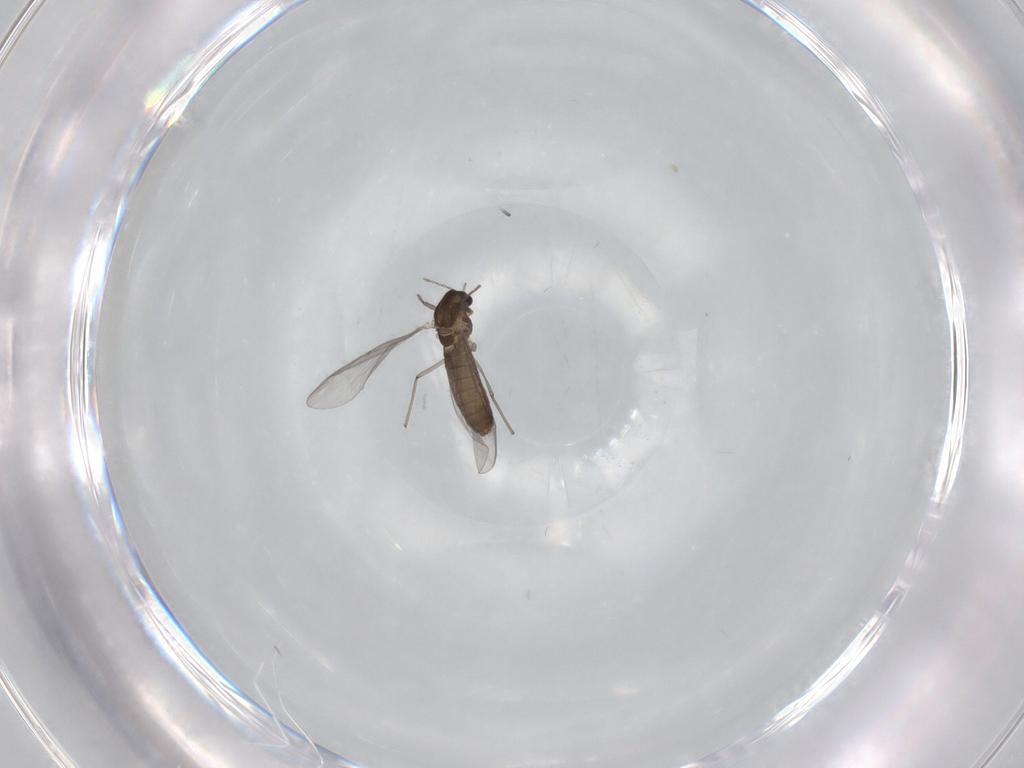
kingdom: Animalia
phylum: Arthropoda
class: Insecta
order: Diptera
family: Chironomidae
